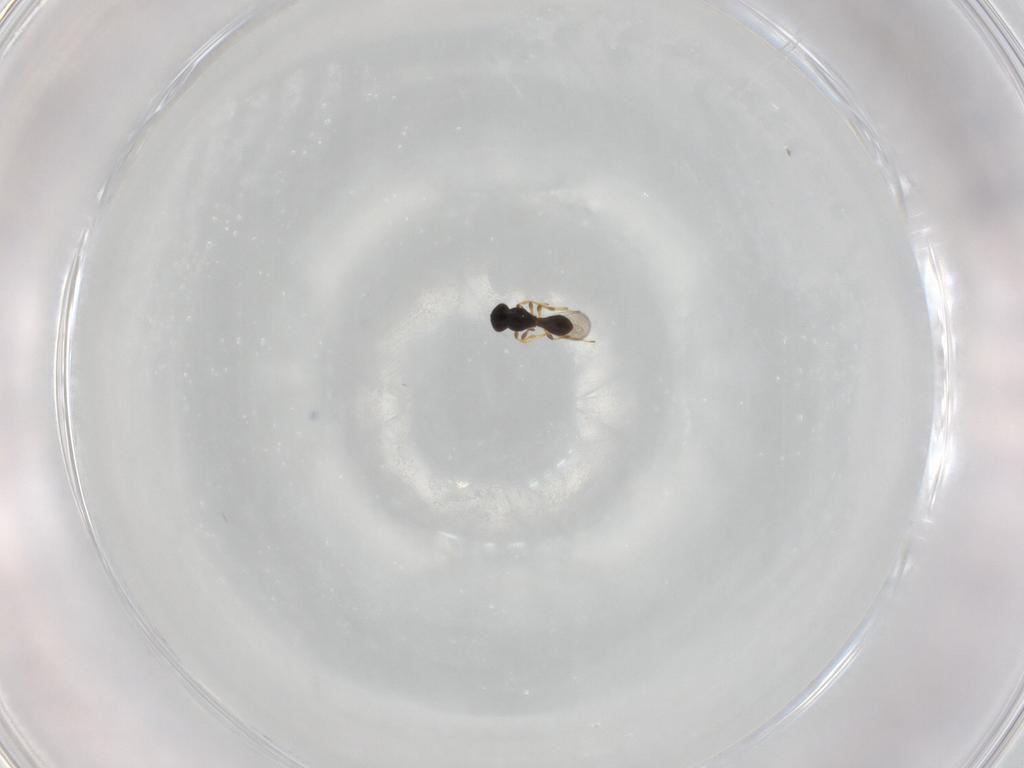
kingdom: Animalia
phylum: Arthropoda
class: Insecta
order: Hymenoptera
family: Platygastridae
